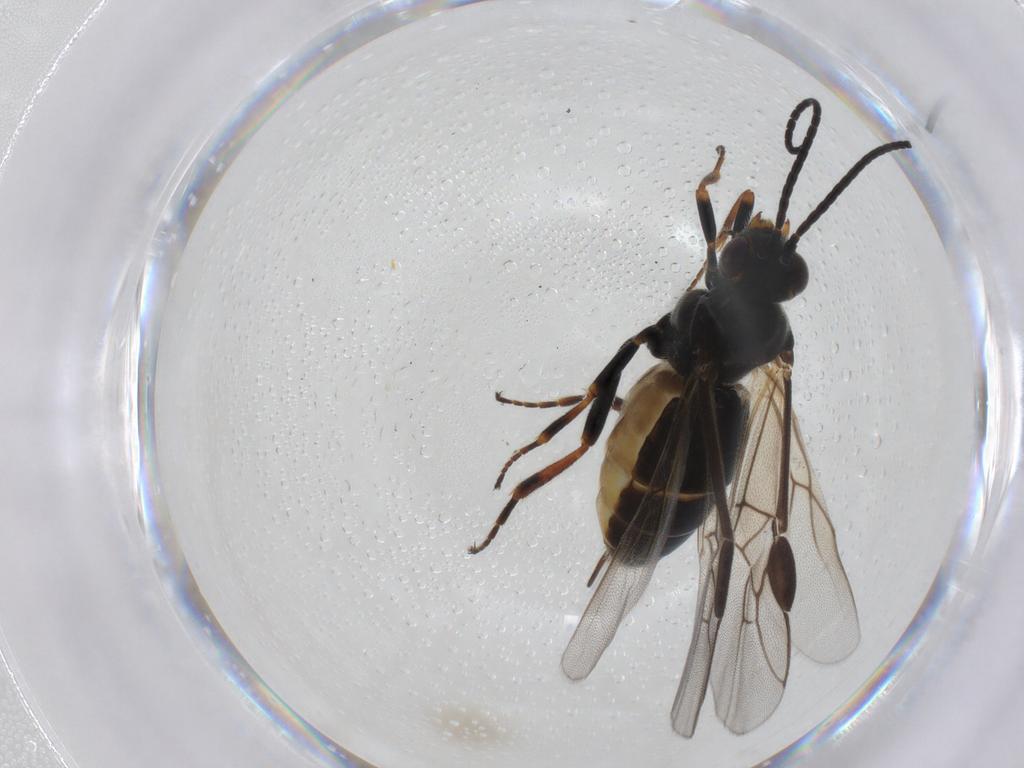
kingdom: Animalia
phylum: Arthropoda
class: Insecta
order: Hymenoptera
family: Braconidae
